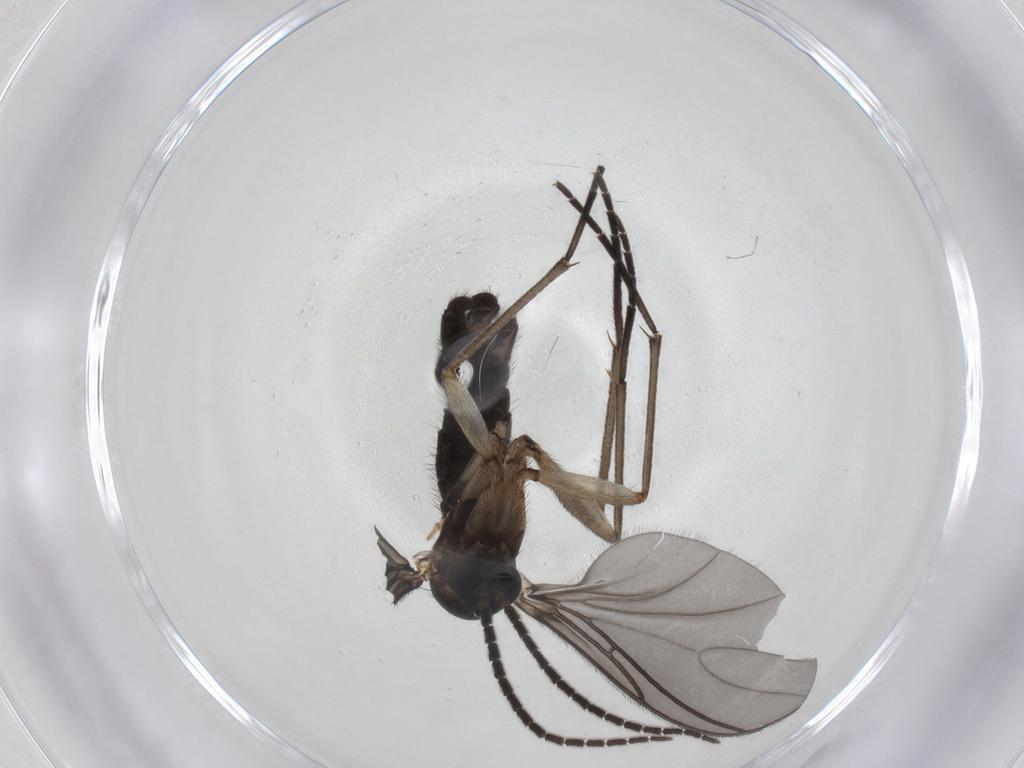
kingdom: Animalia
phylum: Arthropoda
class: Insecta
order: Diptera
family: Sciaridae
